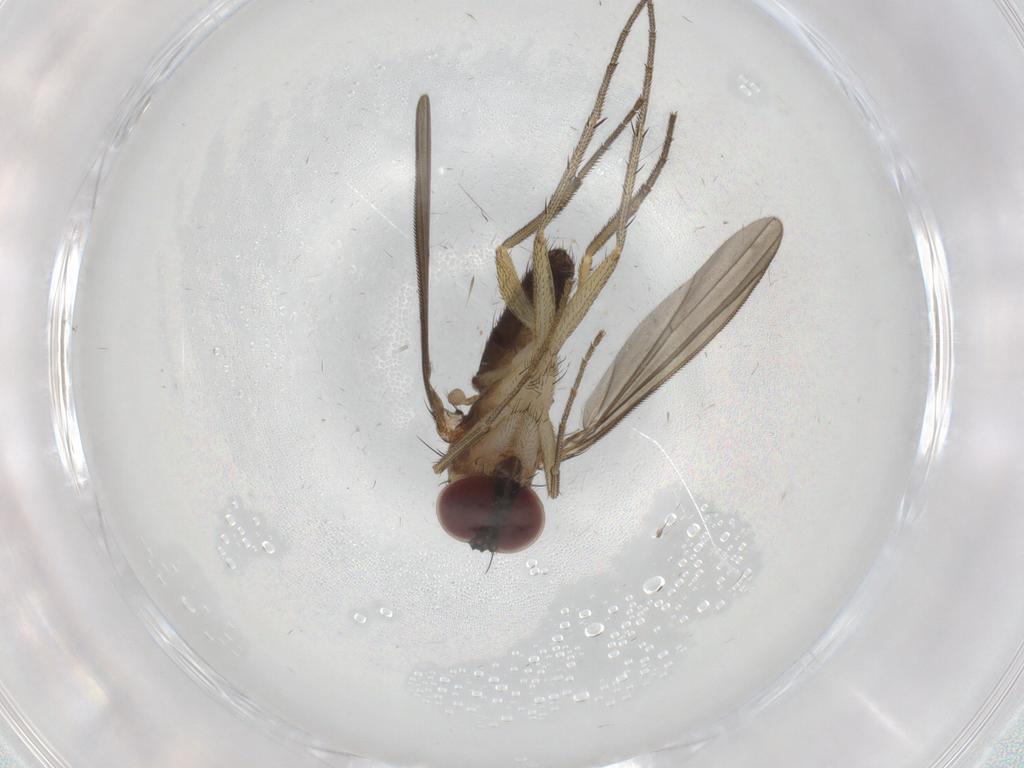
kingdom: Animalia
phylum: Arthropoda
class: Insecta
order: Diptera
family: Dolichopodidae
